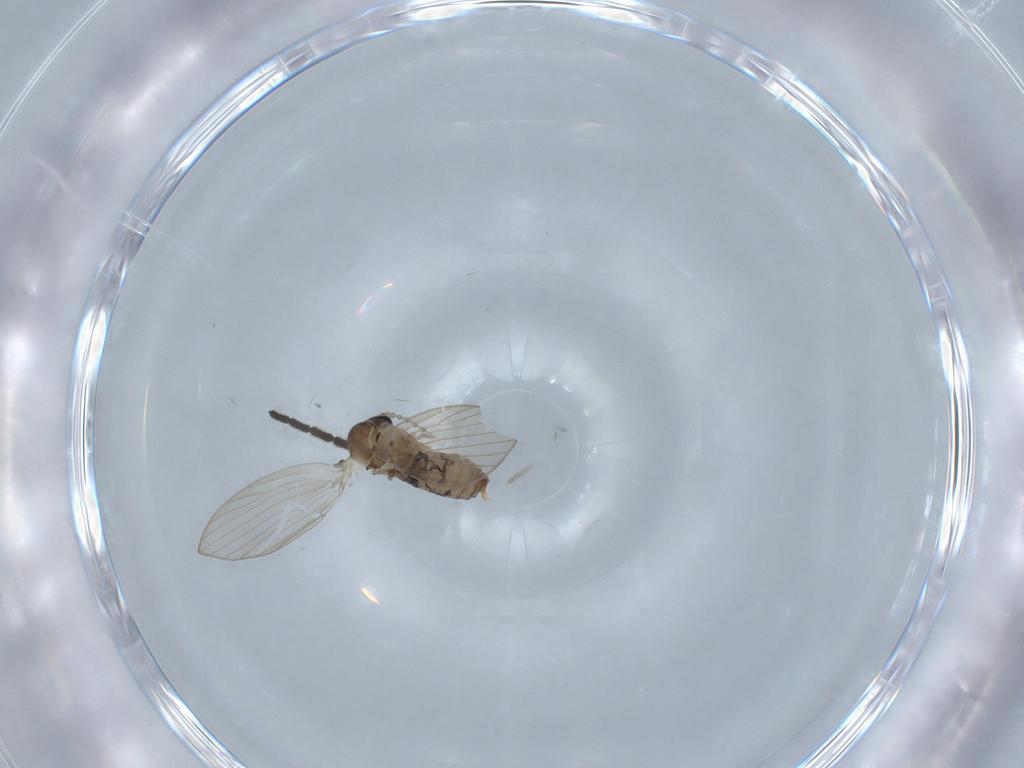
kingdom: Animalia
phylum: Arthropoda
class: Insecta
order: Diptera
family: Psychodidae
